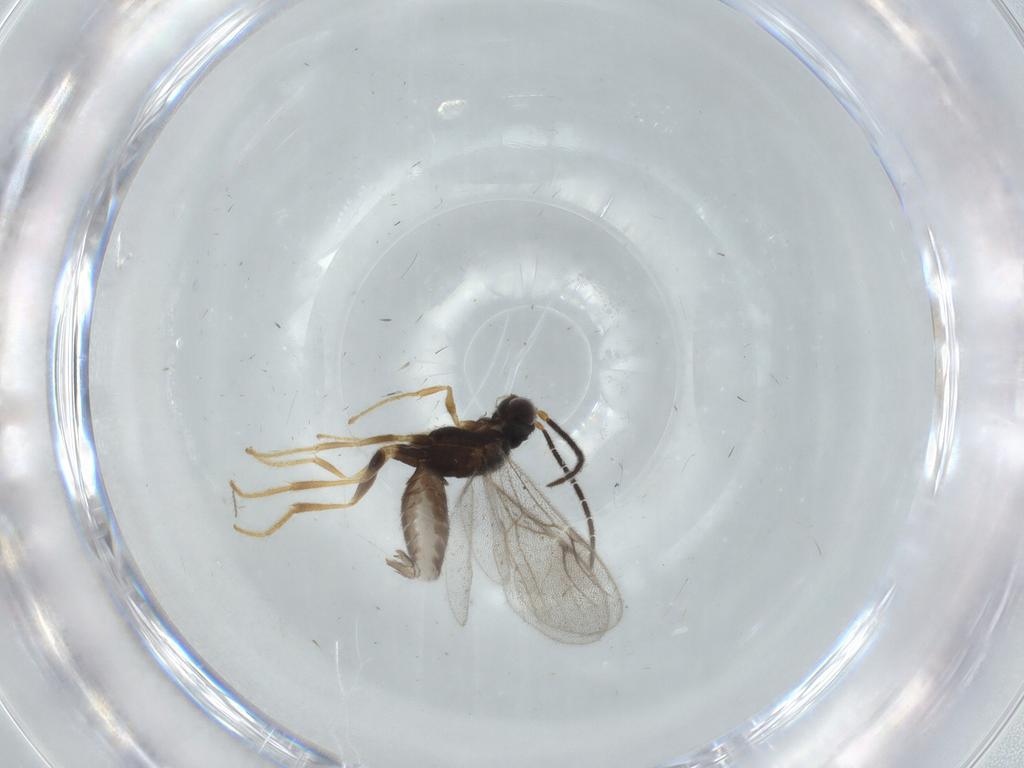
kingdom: Animalia
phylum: Arthropoda
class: Insecta
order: Hymenoptera
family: Dryinidae
